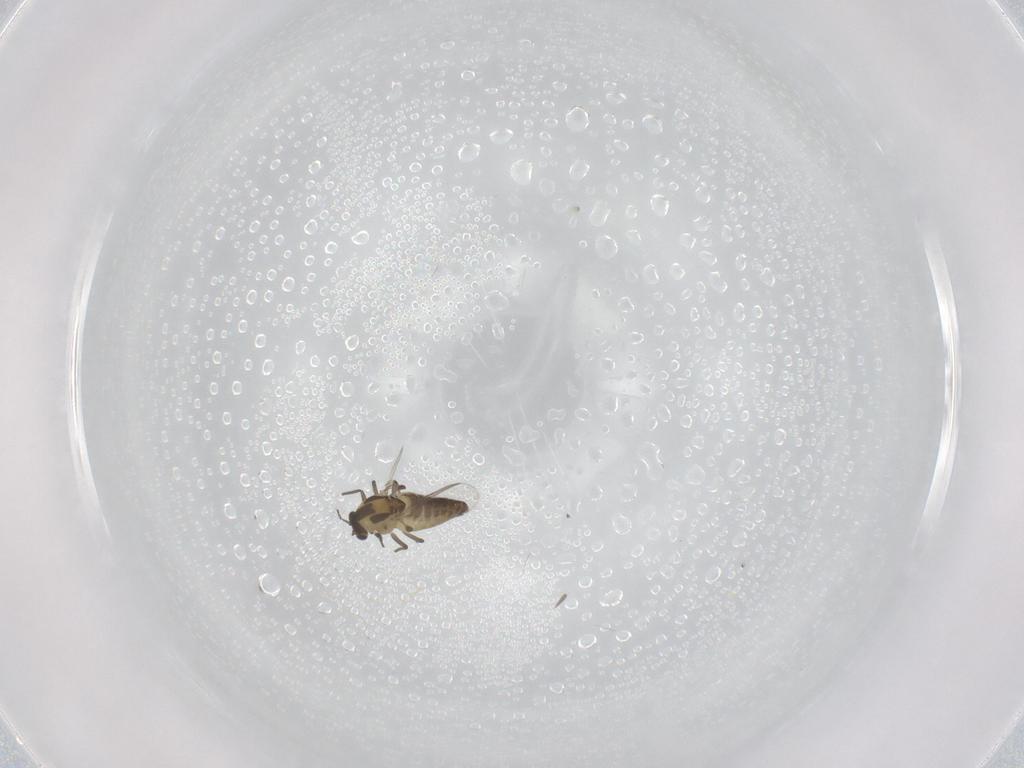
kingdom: Animalia
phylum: Arthropoda
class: Insecta
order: Diptera
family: Chironomidae
